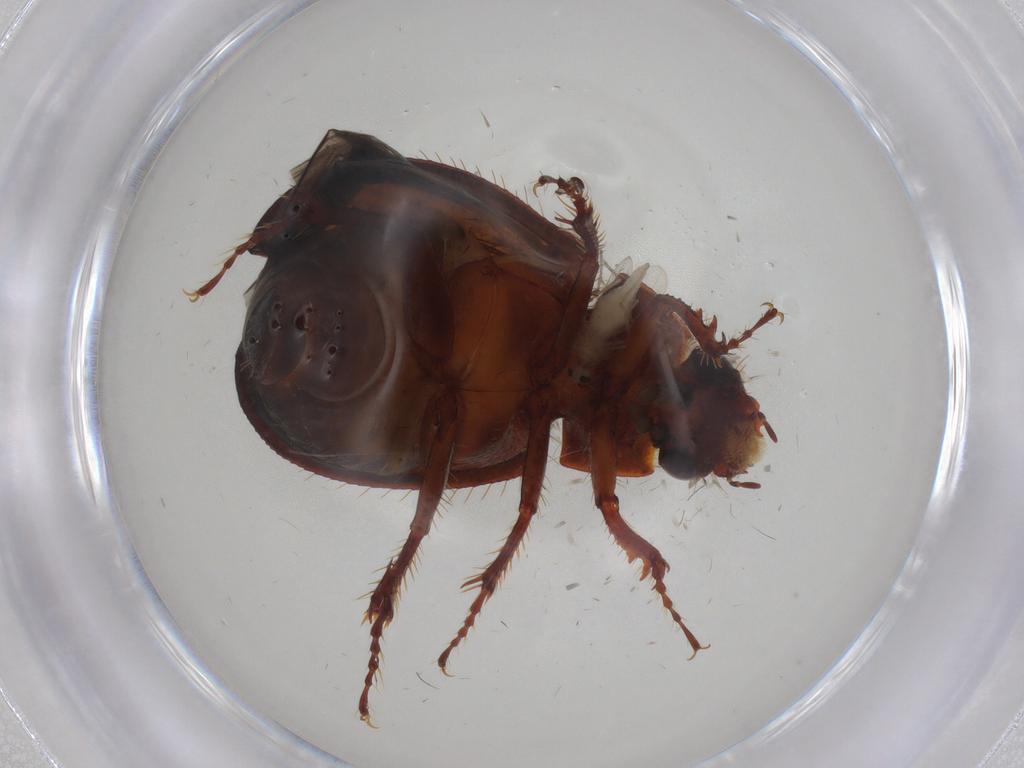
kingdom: Animalia
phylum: Arthropoda
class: Insecta
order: Coleoptera
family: Hybosoridae
